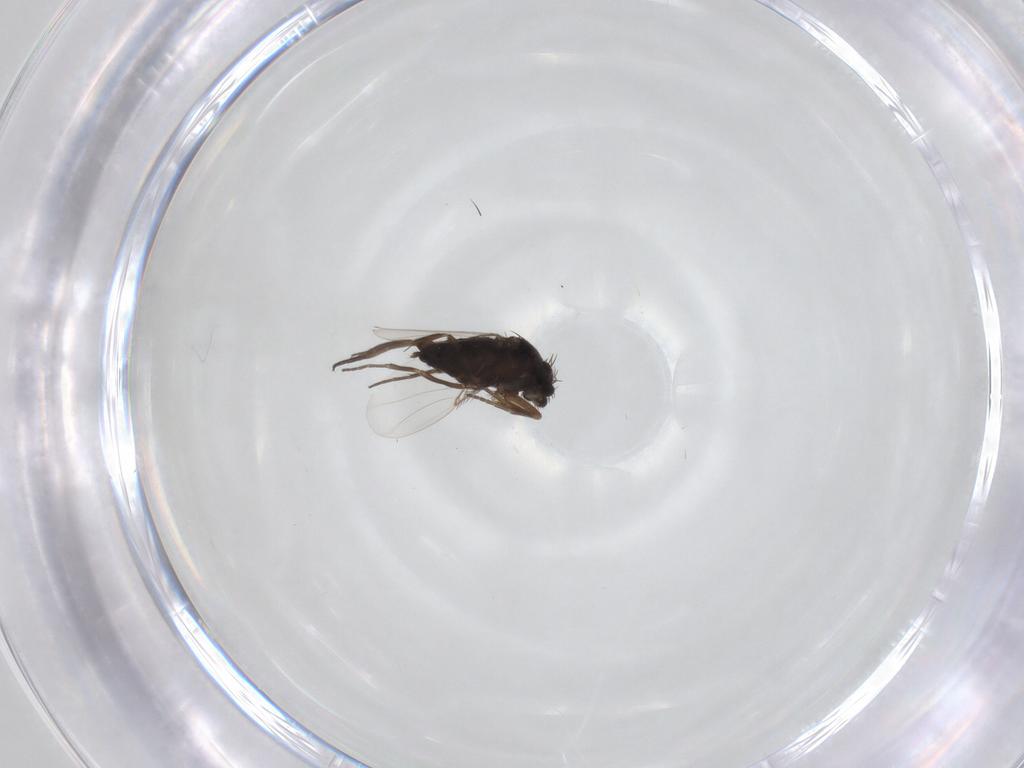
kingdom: Animalia
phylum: Arthropoda
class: Insecta
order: Diptera
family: Phoridae
